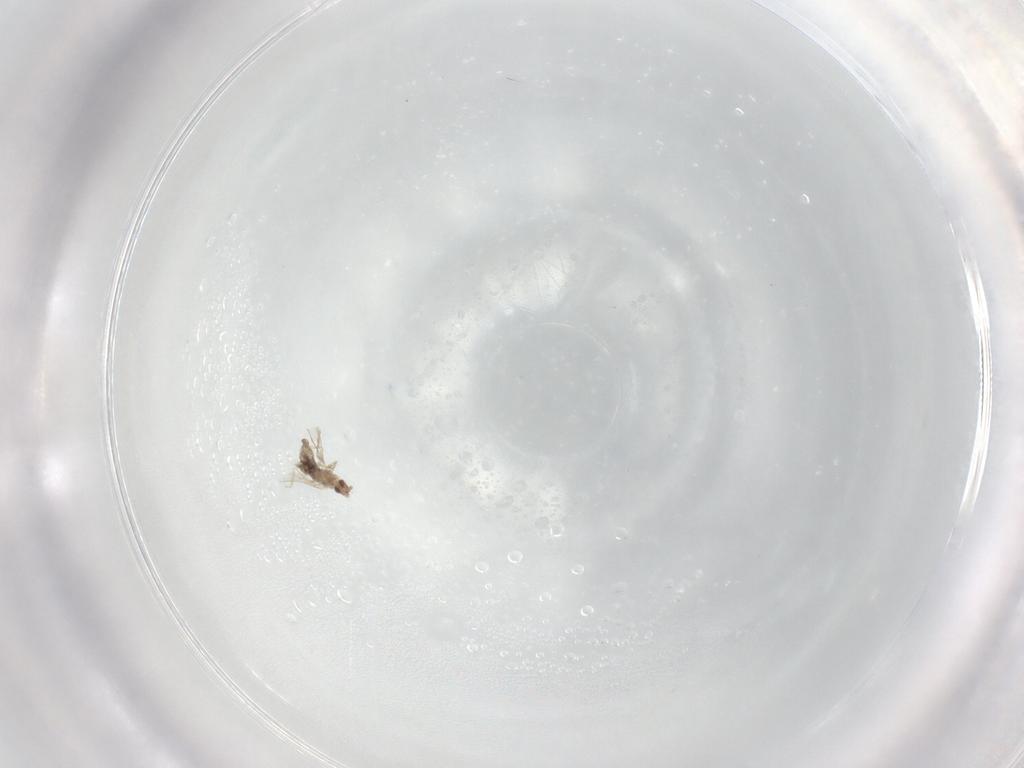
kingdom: Animalia
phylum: Arthropoda
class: Insecta
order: Diptera
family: Cecidomyiidae
